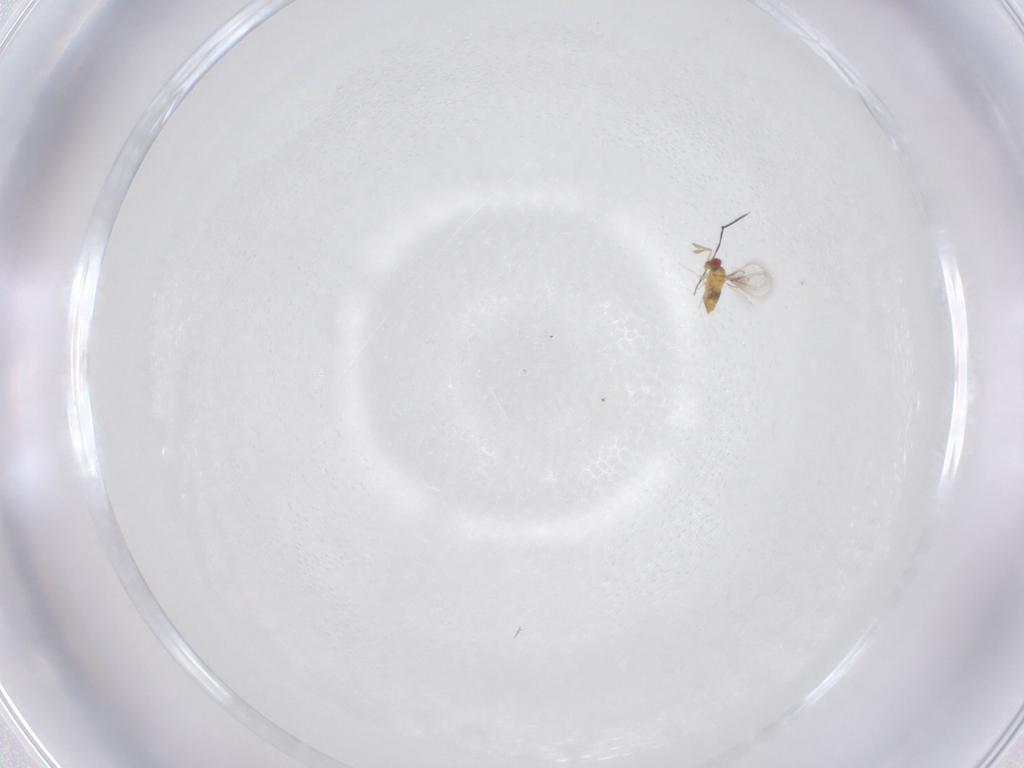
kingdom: Animalia
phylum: Arthropoda
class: Insecta
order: Hymenoptera
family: Trichogrammatidae
